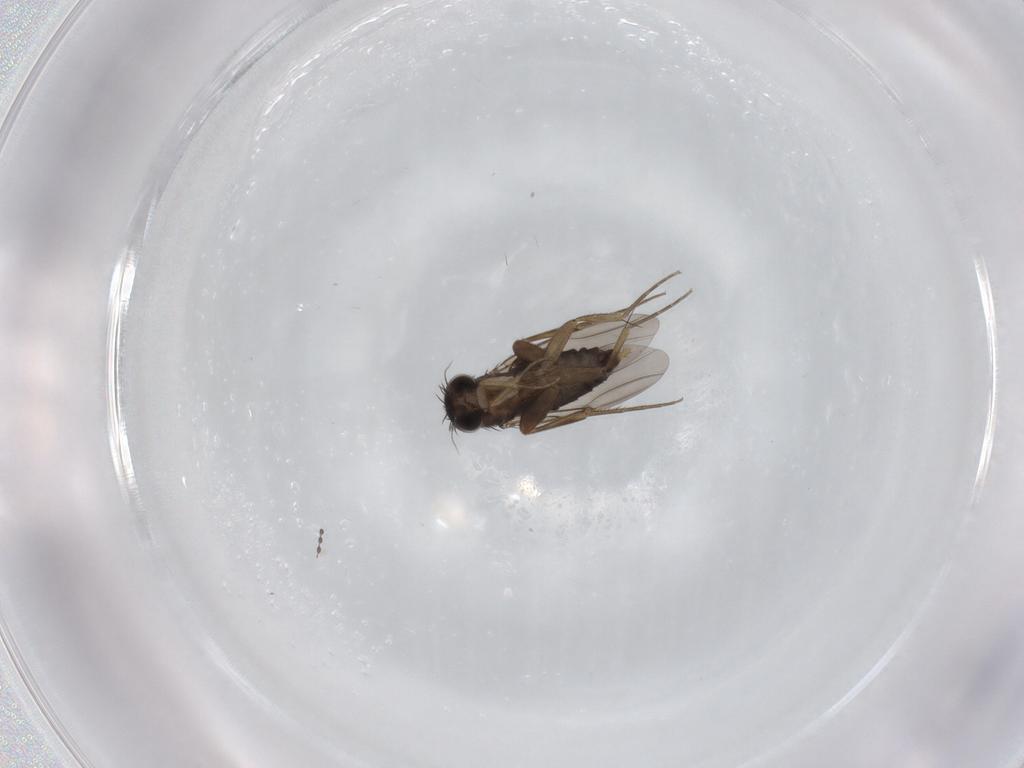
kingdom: Animalia
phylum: Arthropoda
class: Insecta
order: Diptera
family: Phoridae
